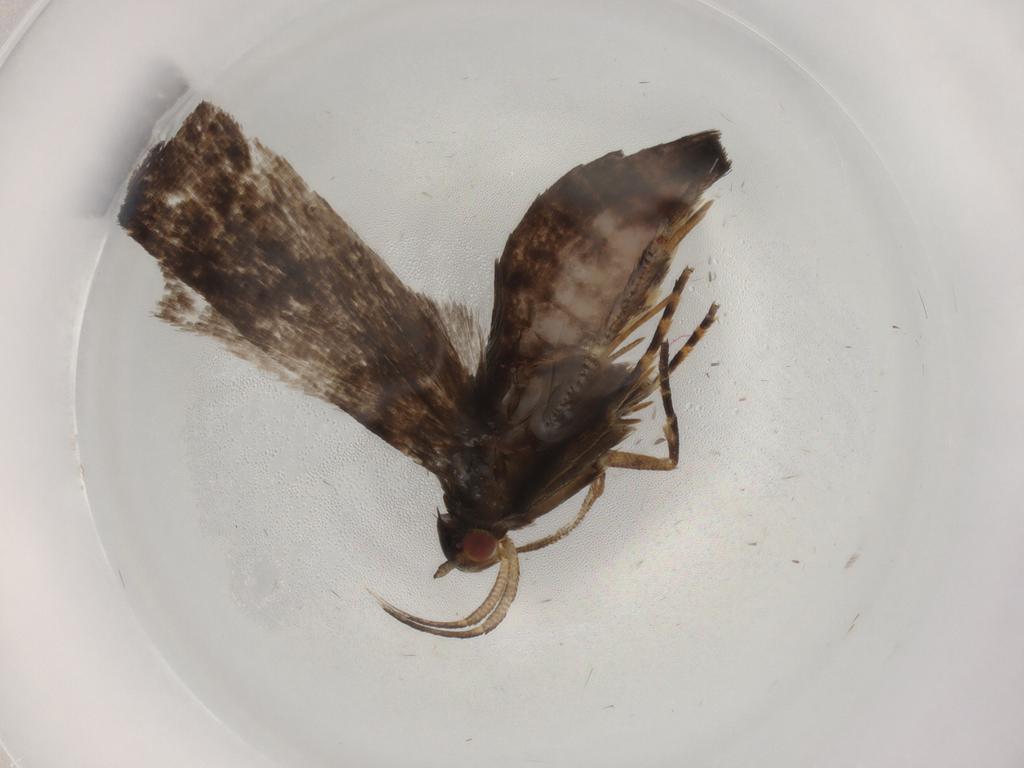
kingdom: Animalia
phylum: Arthropoda
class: Insecta
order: Lepidoptera
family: Gelechiidae
